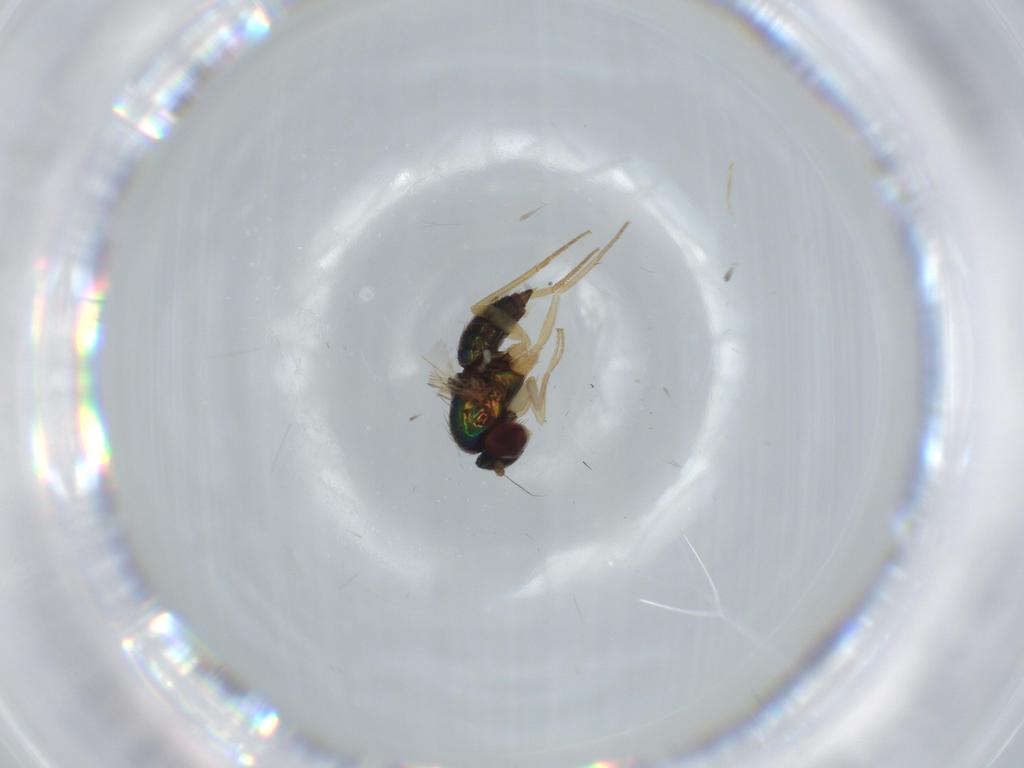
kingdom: Animalia
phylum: Arthropoda
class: Insecta
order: Diptera
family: Dolichopodidae
